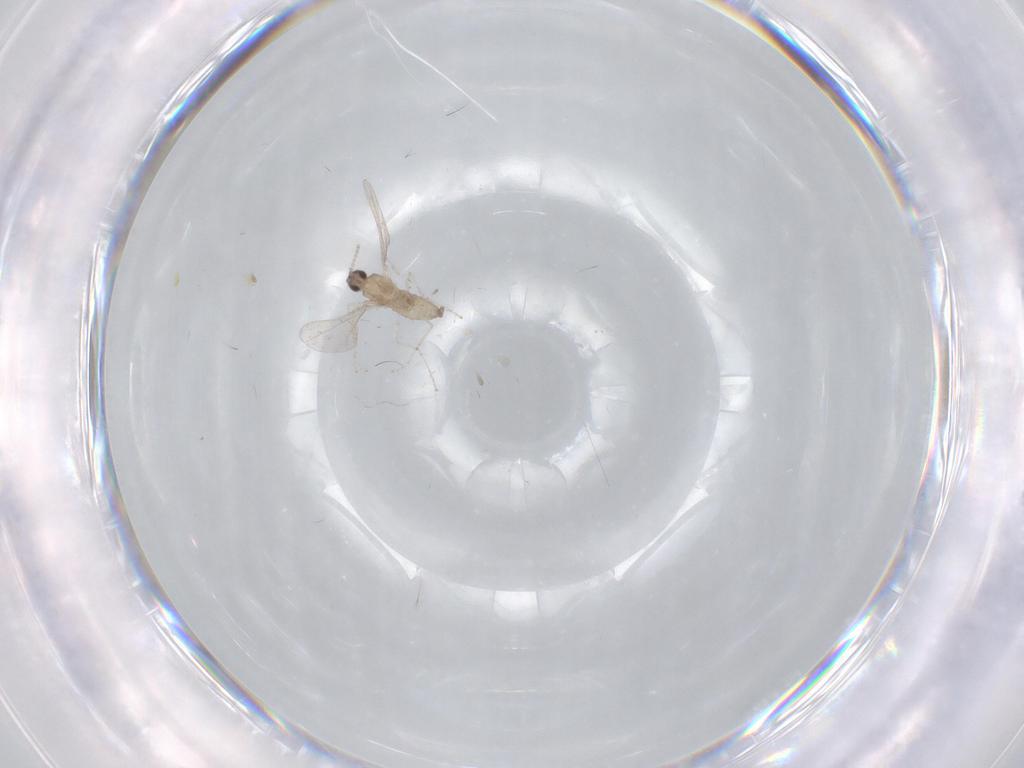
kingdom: Animalia
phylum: Arthropoda
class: Insecta
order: Diptera
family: Cecidomyiidae
